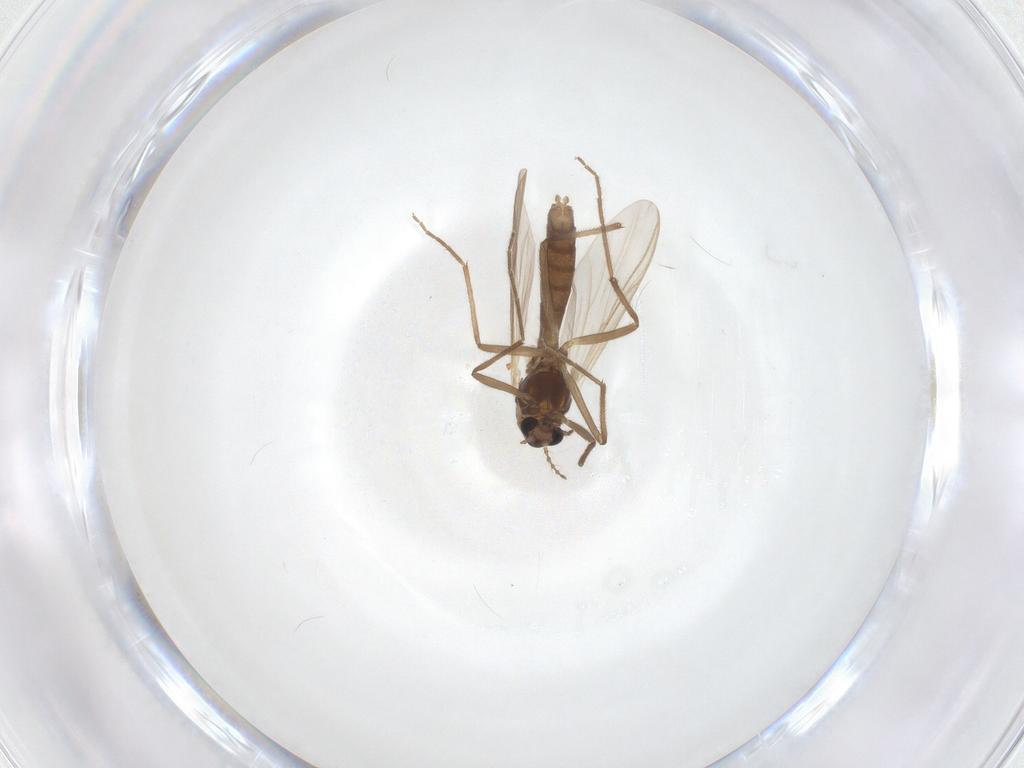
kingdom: Animalia
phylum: Arthropoda
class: Insecta
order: Diptera
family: Chironomidae
